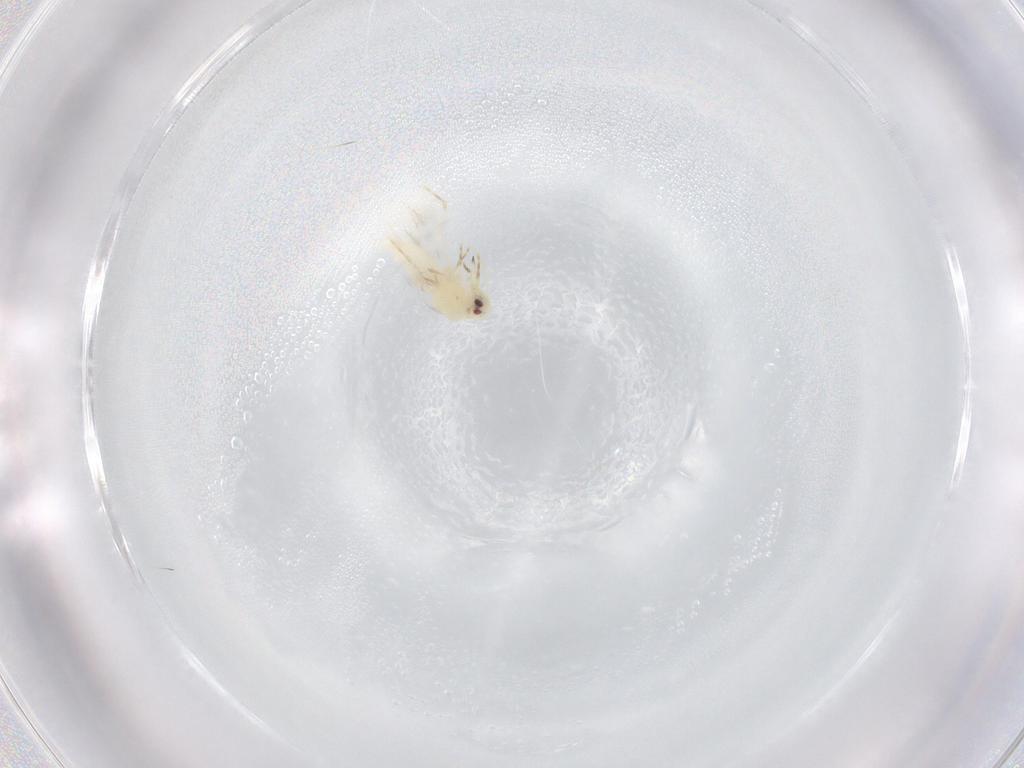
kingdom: Animalia
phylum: Arthropoda
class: Insecta
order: Hemiptera
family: Aleyrodidae
